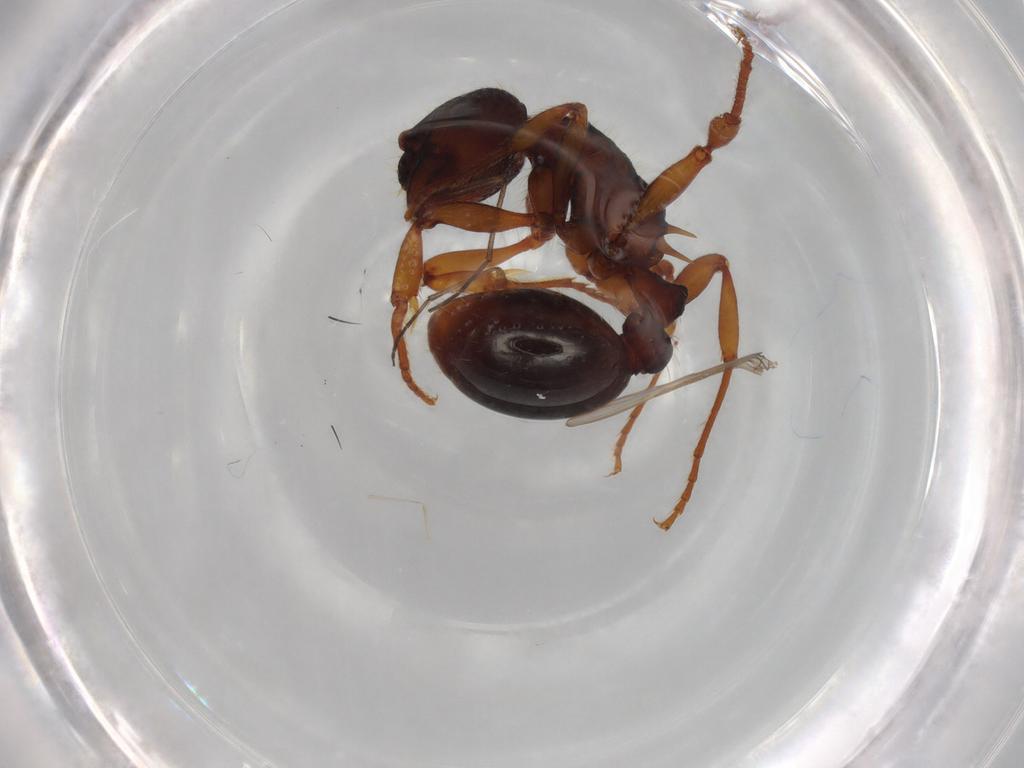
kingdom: Animalia
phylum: Arthropoda
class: Insecta
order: Hymenoptera
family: Formicidae
